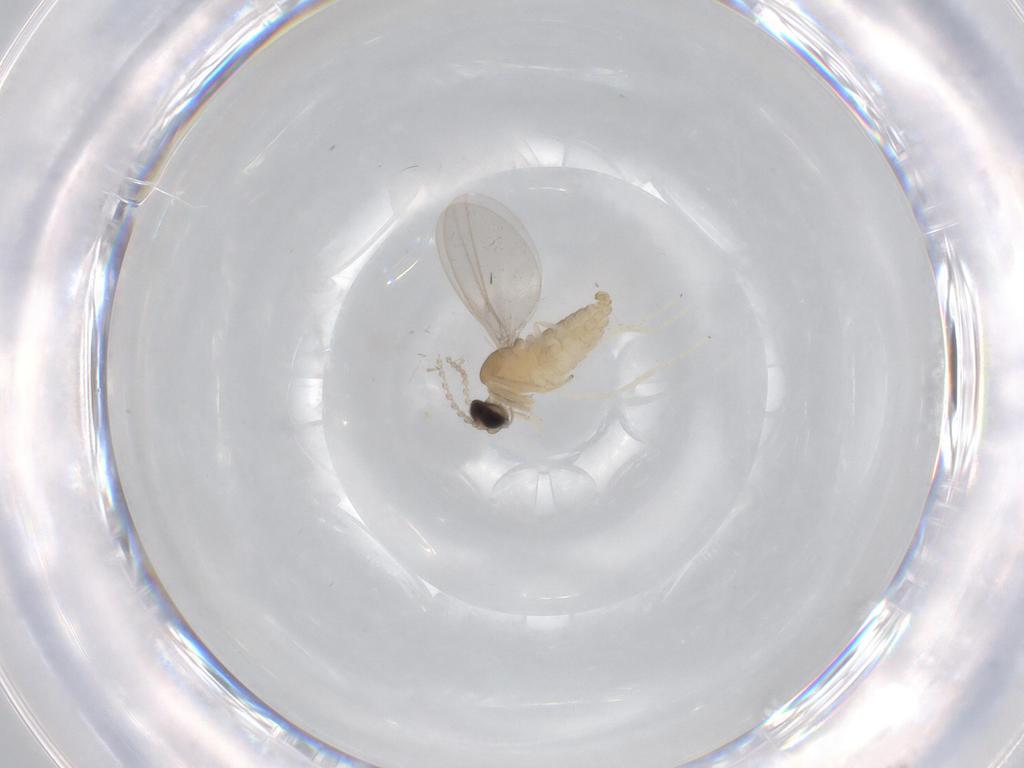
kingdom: Animalia
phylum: Arthropoda
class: Insecta
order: Diptera
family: Cecidomyiidae
